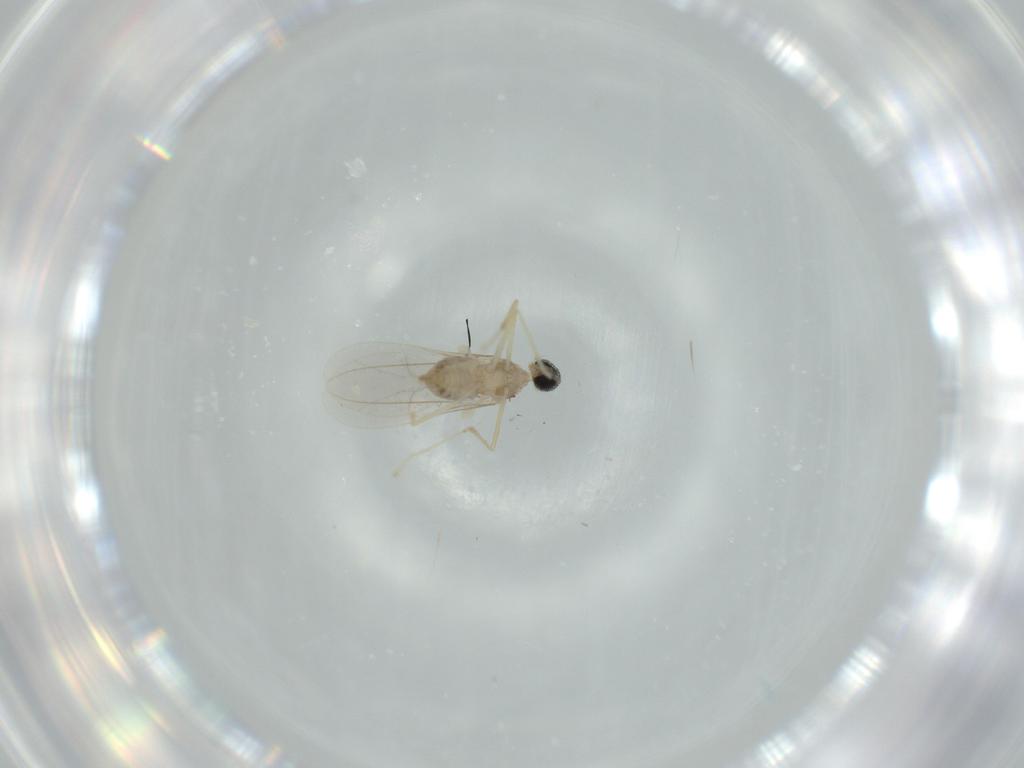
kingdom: Animalia
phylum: Arthropoda
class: Insecta
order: Diptera
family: Cecidomyiidae
